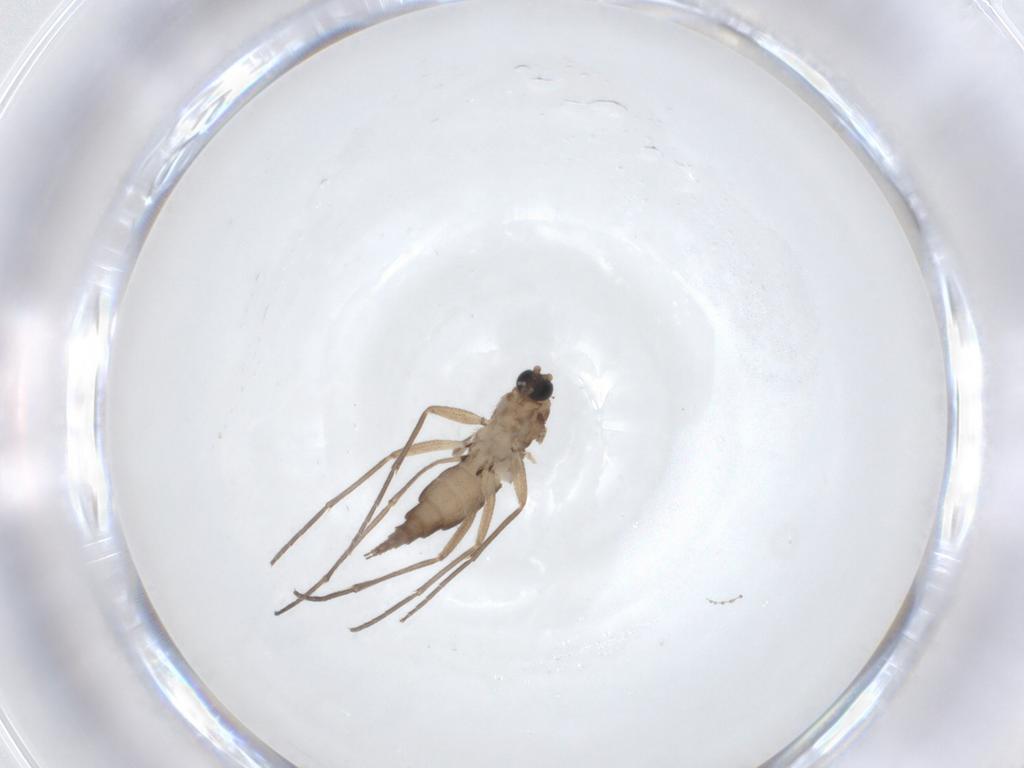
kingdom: Animalia
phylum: Arthropoda
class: Insecta
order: Diptera
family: Sciaridae
